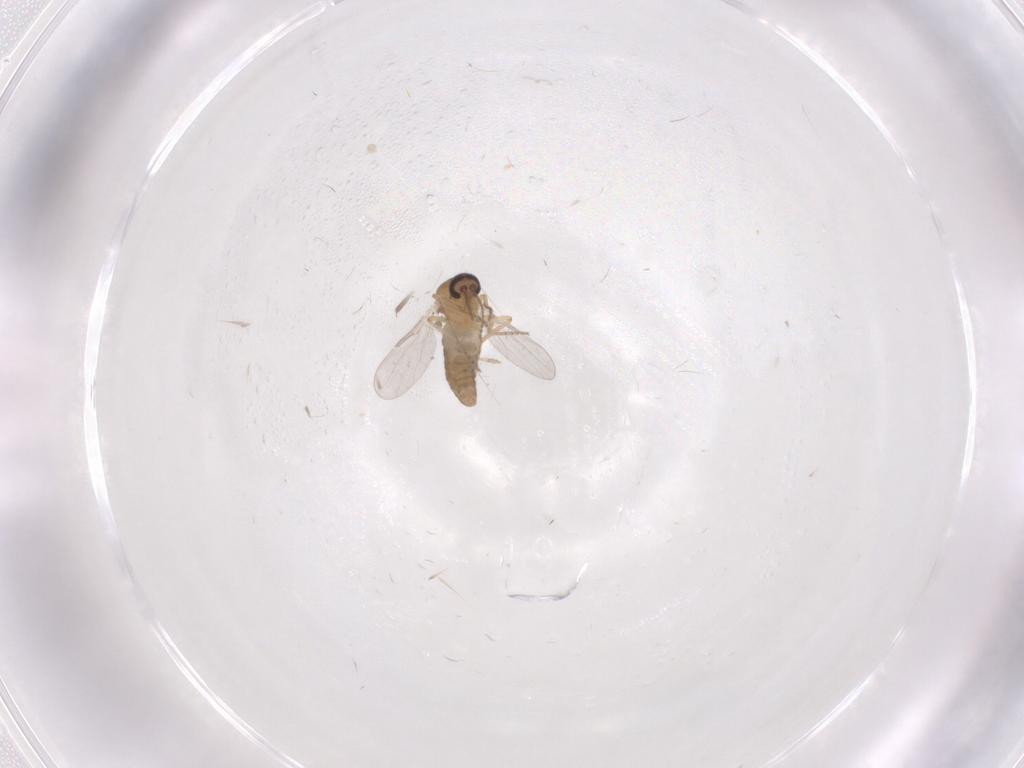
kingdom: Animalia
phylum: Arthropoda
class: Insecta
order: Diptera
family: Ceratopogonidae
